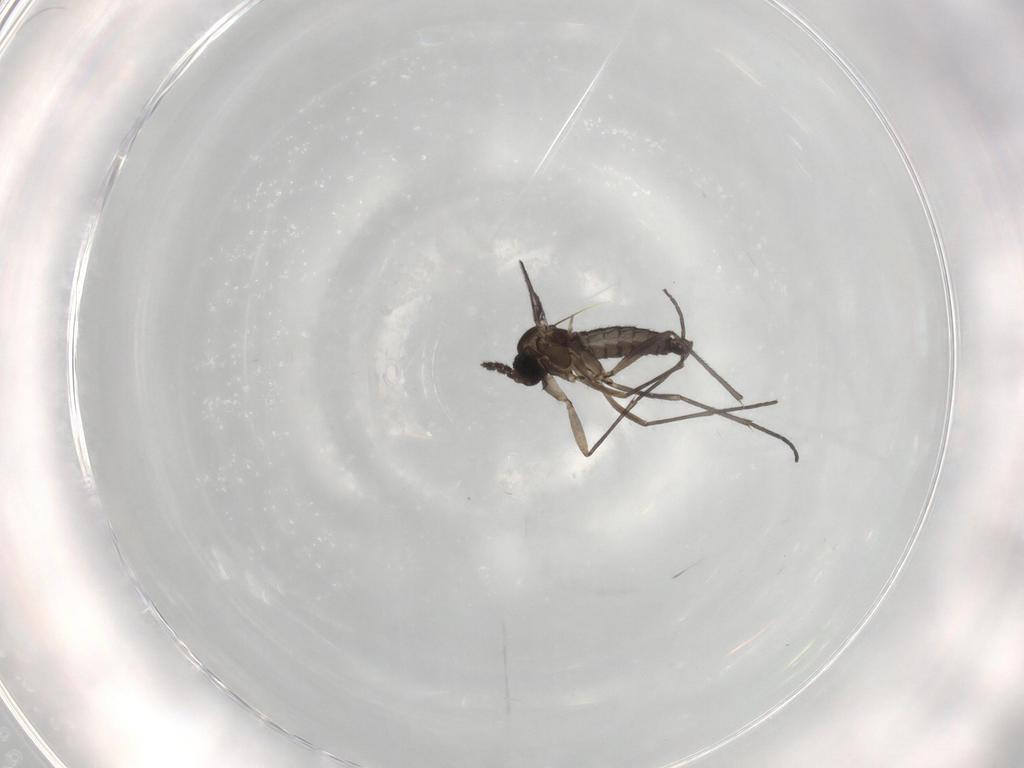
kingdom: Animalia
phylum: Arthropoda
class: Insecta
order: Diptera
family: Sciaridae
